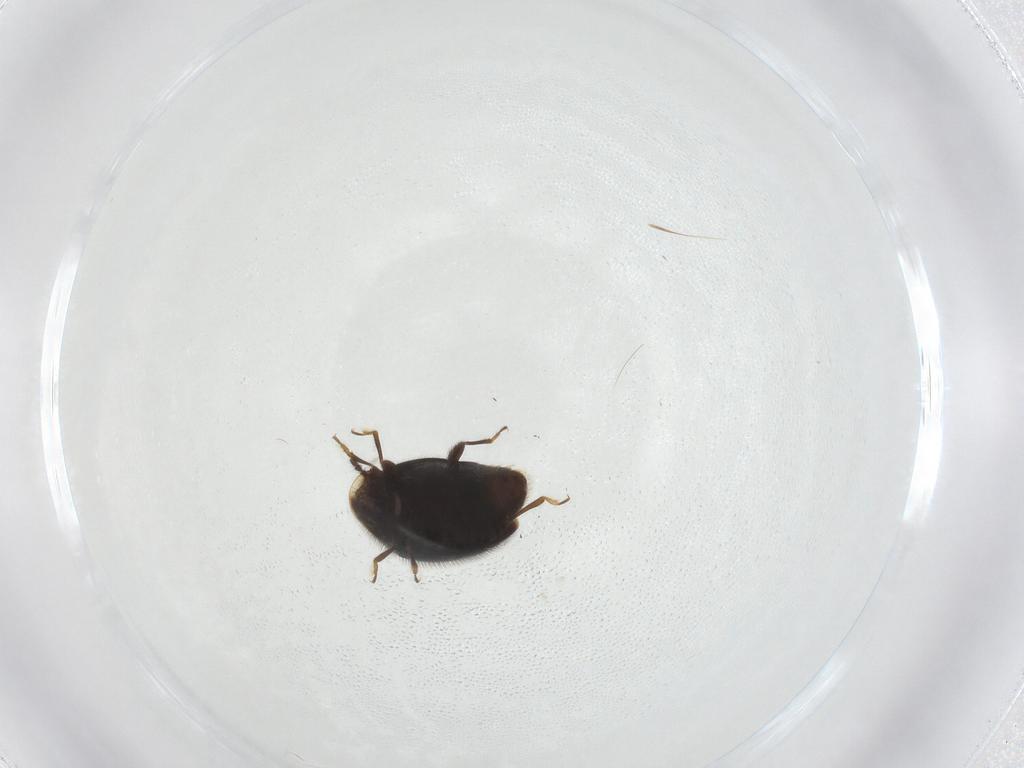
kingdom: Animalia
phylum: Arthropoda
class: Insecta
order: Coleoptera
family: Corylophidae
